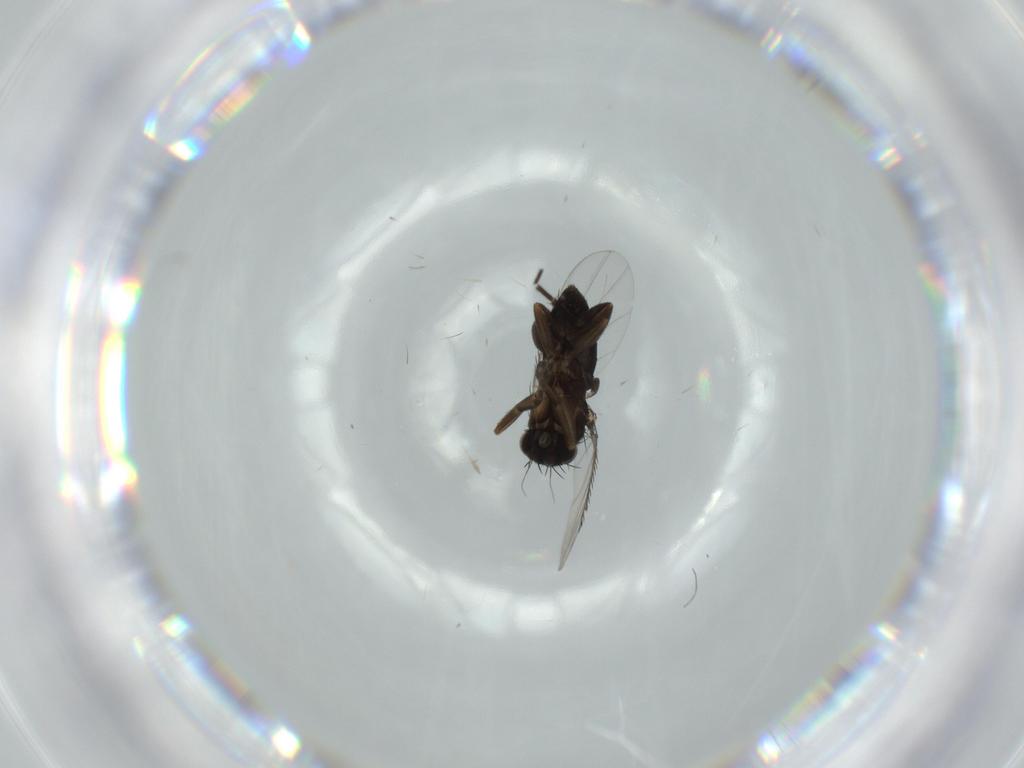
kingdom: Animalia
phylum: Arthropoda
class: Insecta
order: Diptera
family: Phoridae
